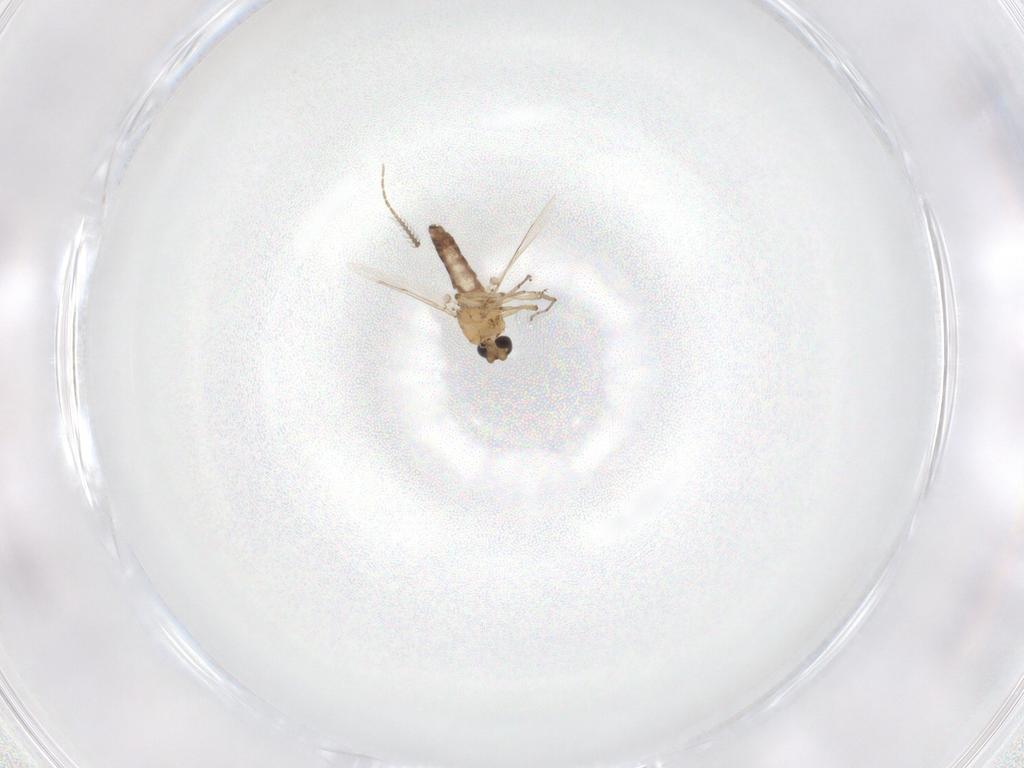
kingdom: Animalia
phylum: Arthropoda
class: Insecta
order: Diptera
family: Ceratopogonidae
